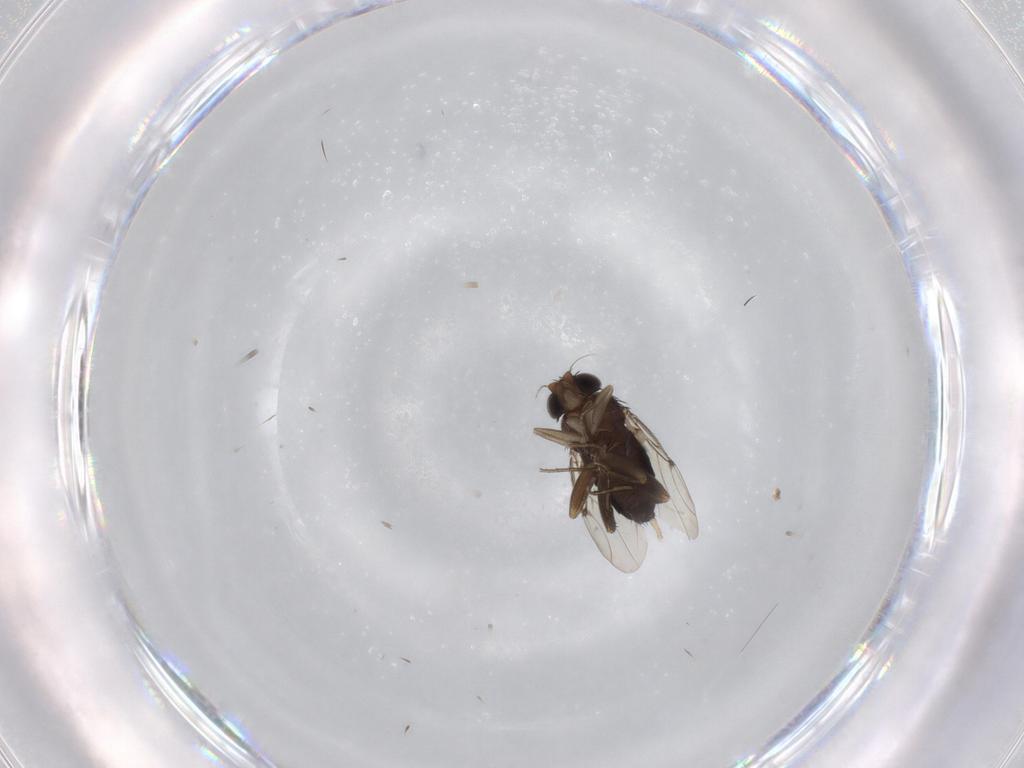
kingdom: Animalia
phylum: Arthropoda
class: Insecta
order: Diptera
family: Phoridae
